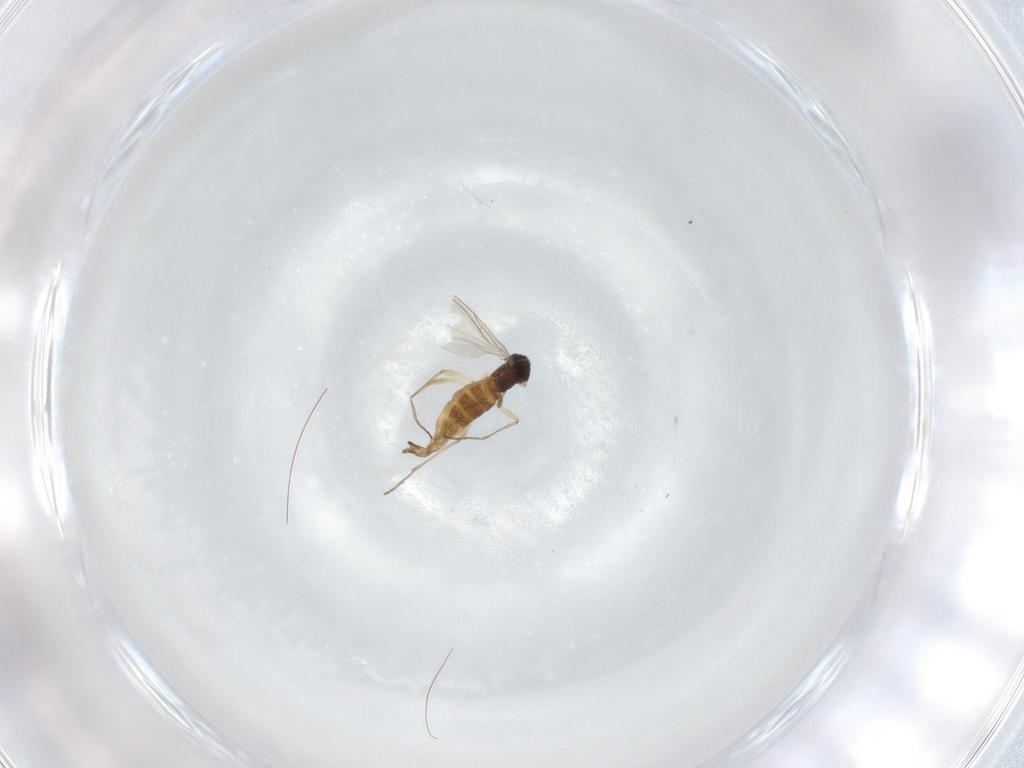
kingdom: Animalia
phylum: Arthropoda
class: Insecta
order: Diptera
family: Sciaridae
